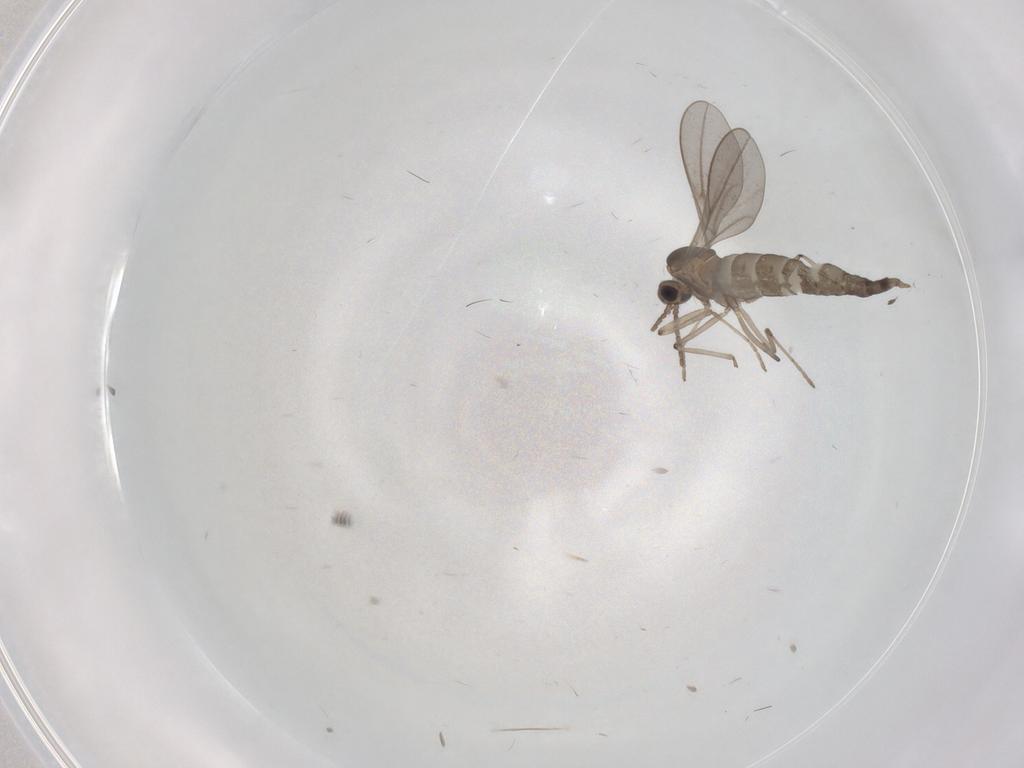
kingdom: Animalia
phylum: Arthropoda
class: Insecta
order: Diptera
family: Cecidomyiidae
